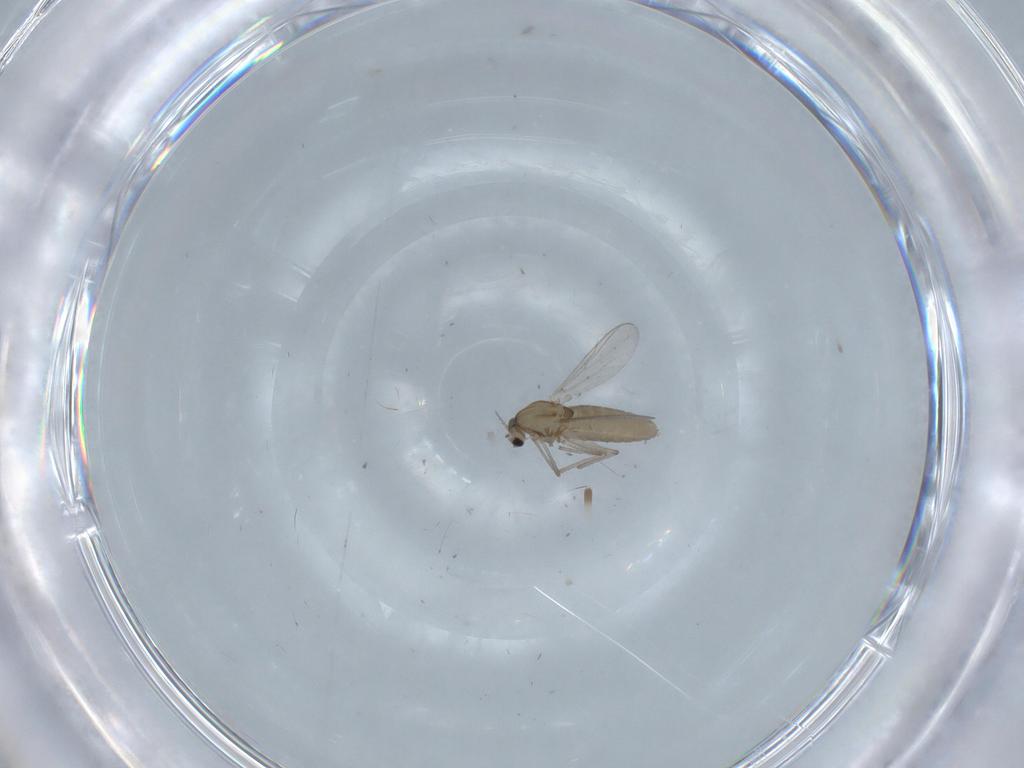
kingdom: Animalia
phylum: Arthropoda
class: Insecta
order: Diptera
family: Chironomidae
